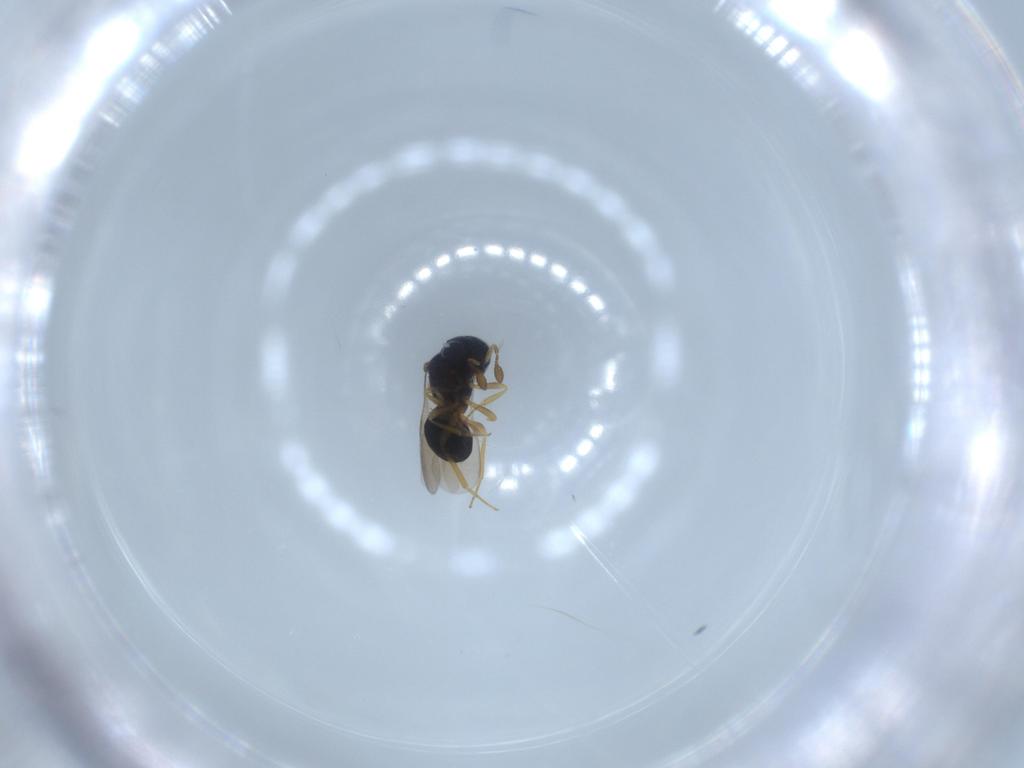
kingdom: Animalia
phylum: Arthropoda
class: Insecta
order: Hymenoptera
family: Scelionidae
